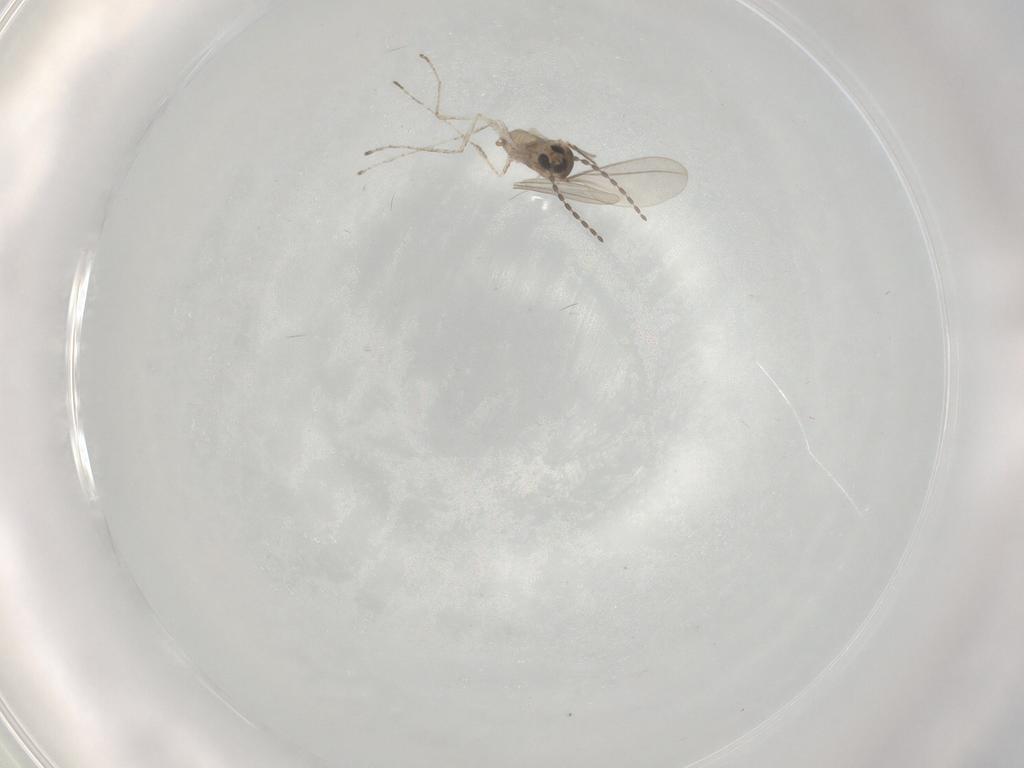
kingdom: Animalia
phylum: Arthropoda
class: Insecta
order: Diptera
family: Cecidomyiidae
